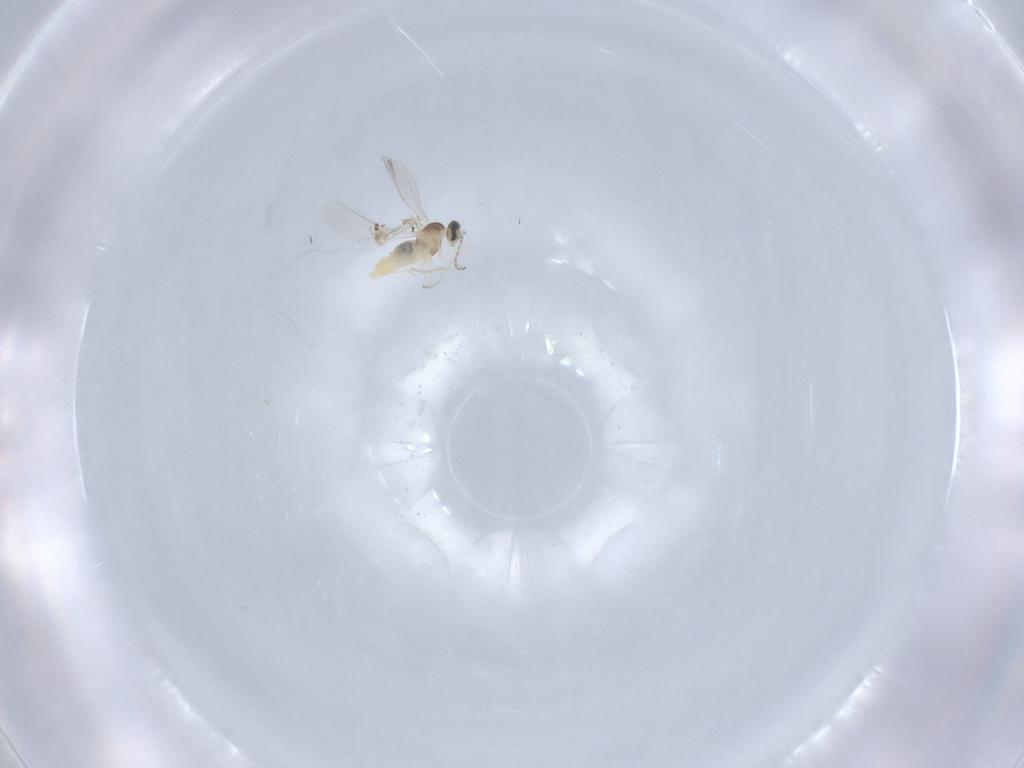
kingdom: Animalia
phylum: Arthropoda
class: Insecta
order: Diptera
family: Cecidomyiidae
